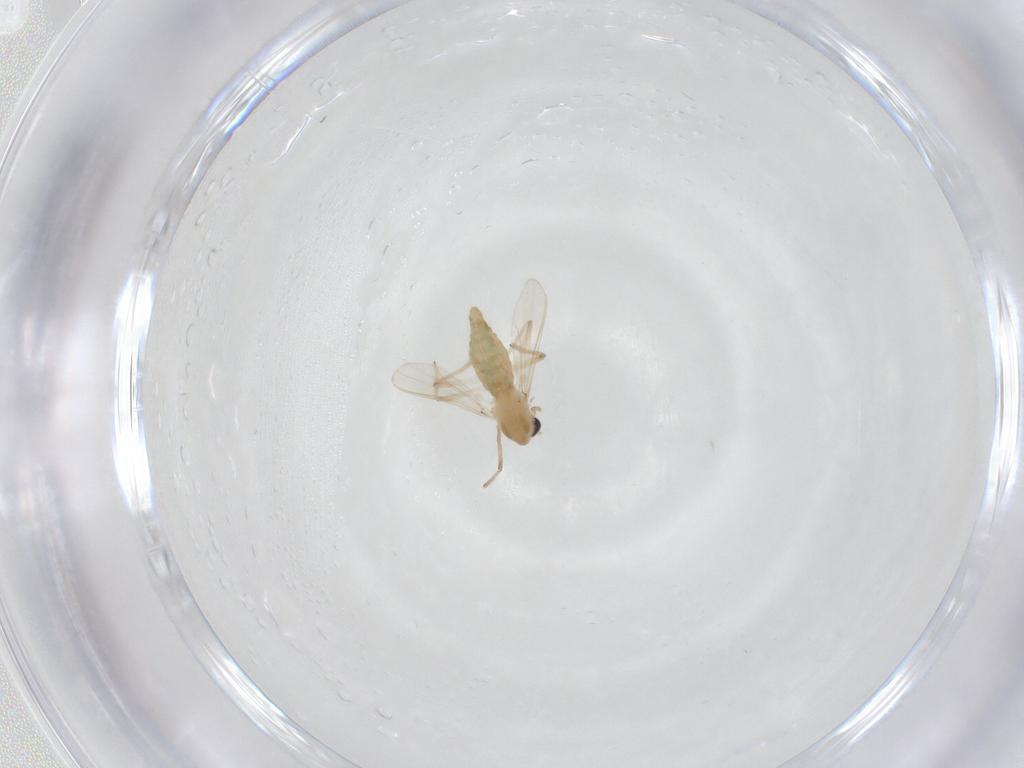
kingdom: Animalia
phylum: Arthropoda
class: Insecta
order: Diptera
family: Chironomidae
